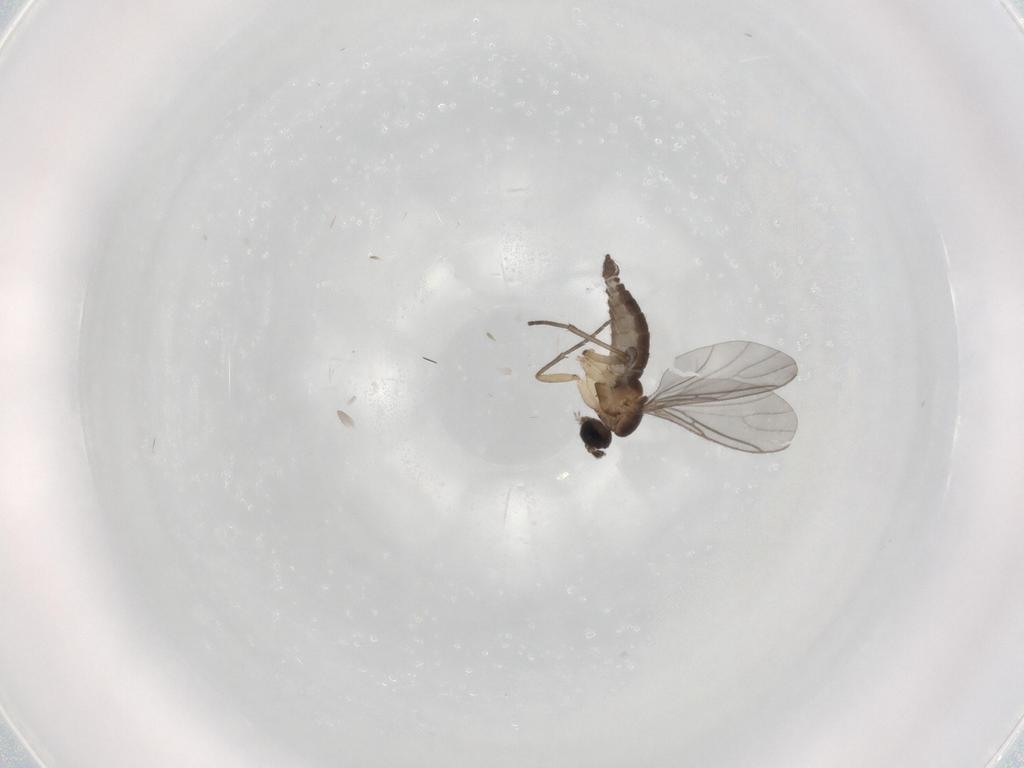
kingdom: Animalia
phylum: Arthropoda
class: Insecta
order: Diptera
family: Sciaridae
